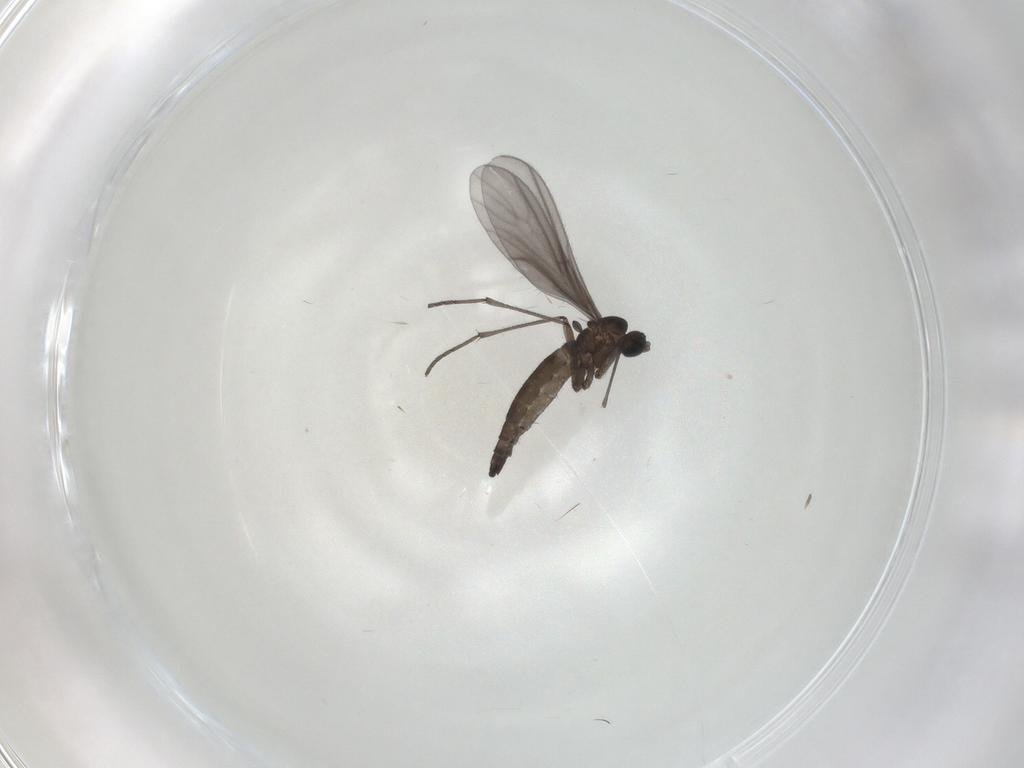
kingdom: Animalia
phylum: Arthropoda
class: Insecta
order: Diptera
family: Sciaridae
